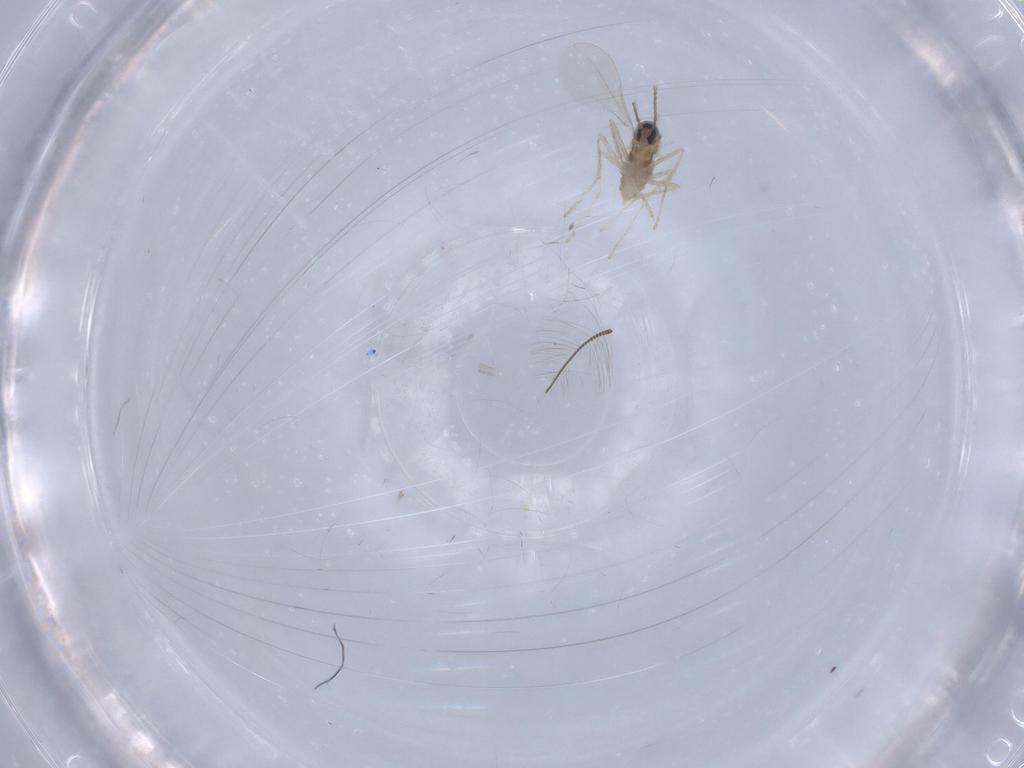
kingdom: Animalia
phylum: Arthropoda
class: Insecta
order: Diptera
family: Cecidomyiidae
